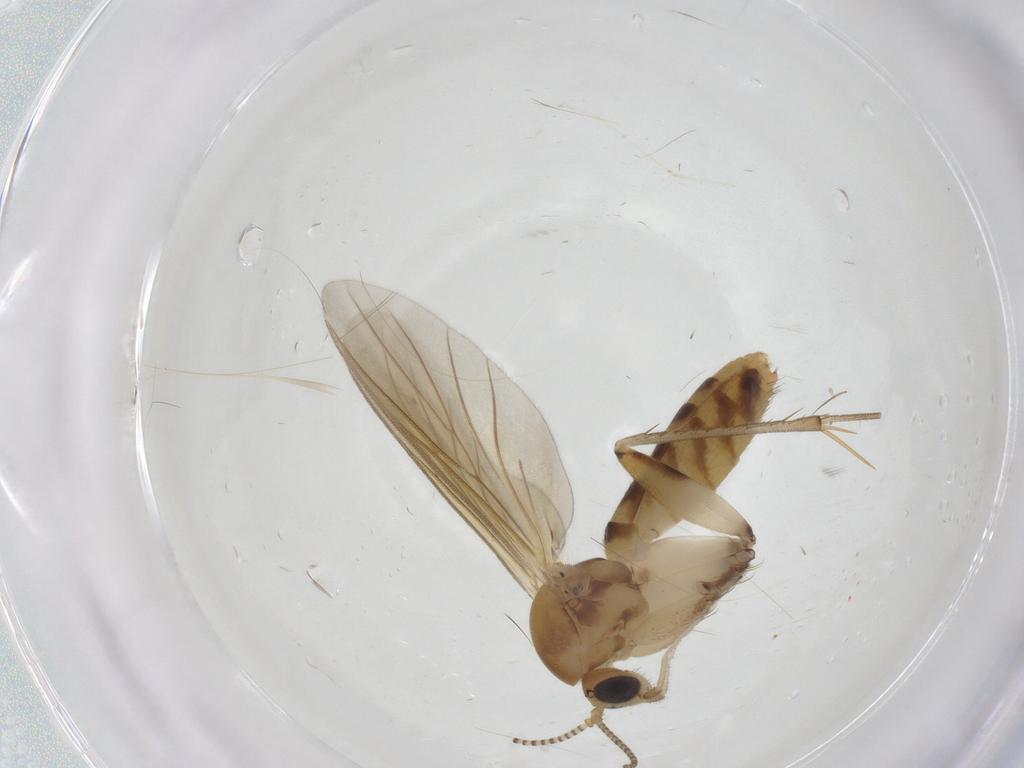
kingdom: Animalia
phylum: Arthropoda
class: Insecta
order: Diptera
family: Mycetophilidae
